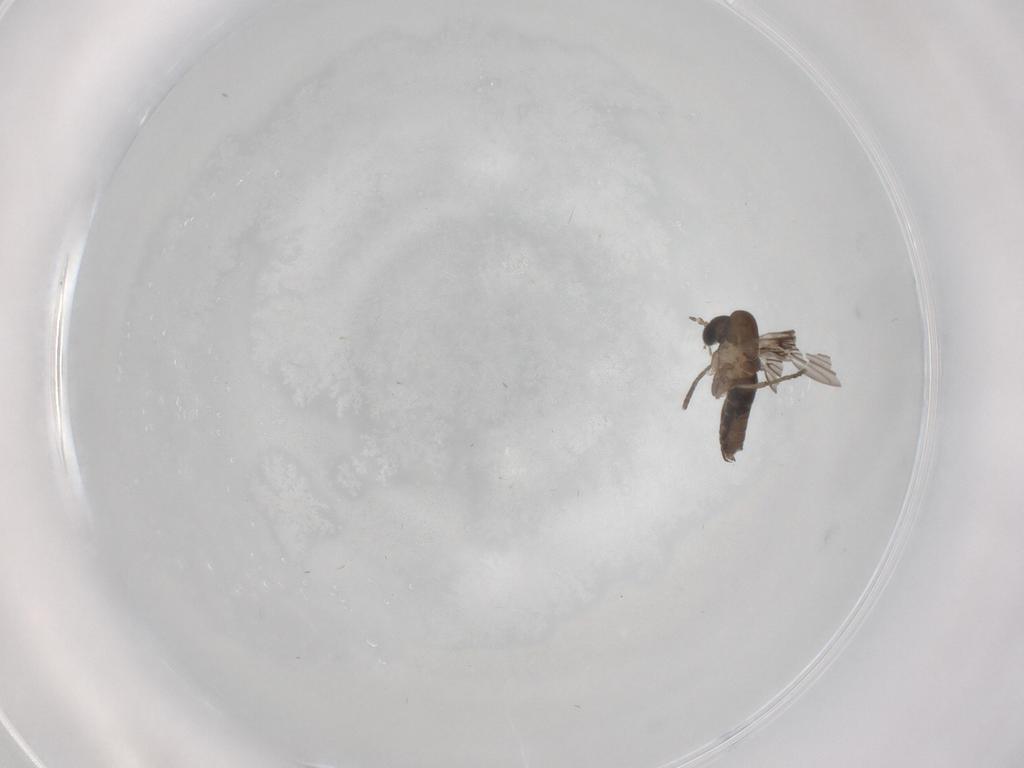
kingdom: Animalia
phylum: Arthropoda
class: Insecta
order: Diptera
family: Psychodidae
